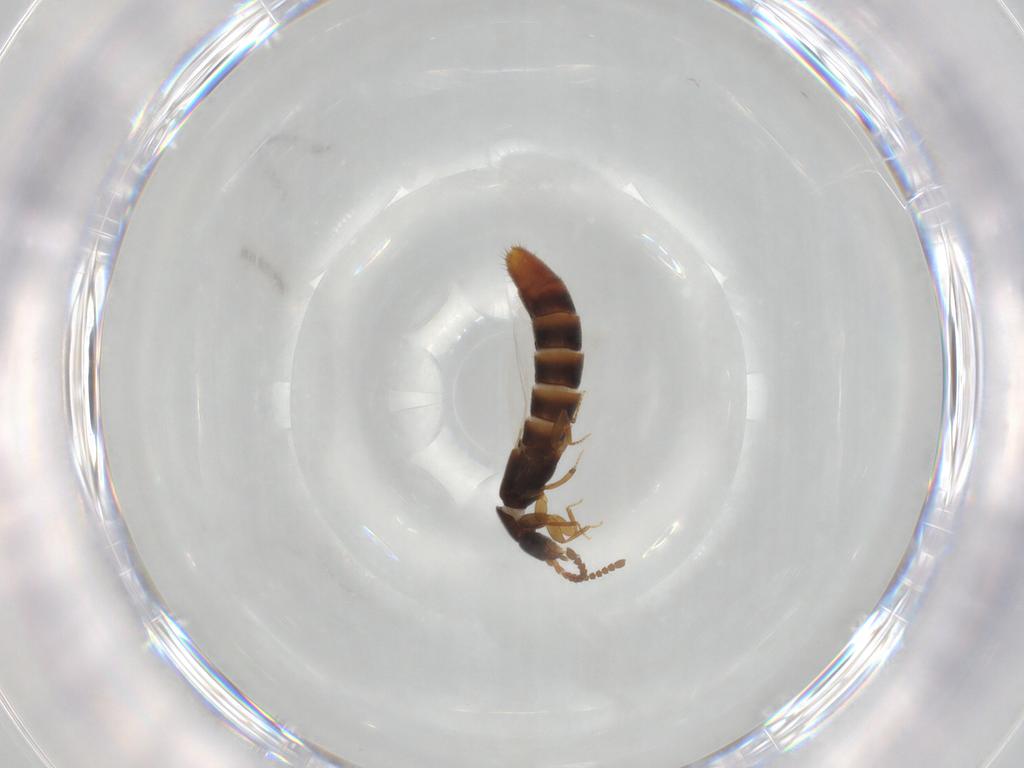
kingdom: Animalia
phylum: Arthropoda
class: Insecta
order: Coleoptera
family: Staphylinidae
